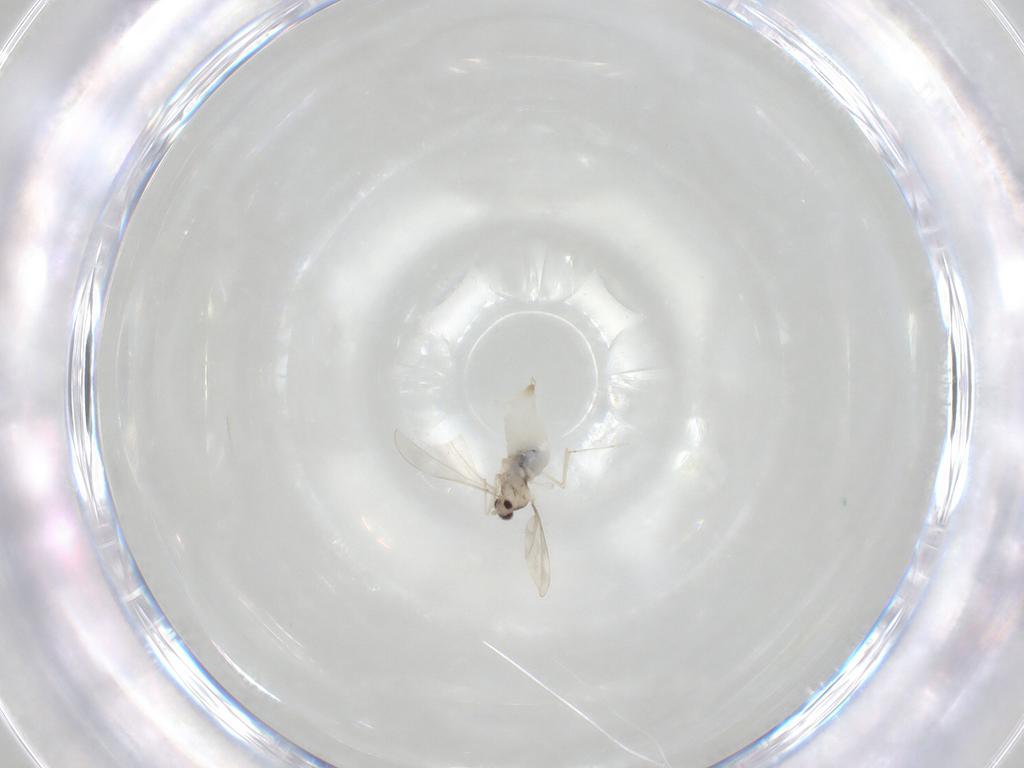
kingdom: Animalia
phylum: Arthropoda
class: Insecta
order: Diptera
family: Cecidomyiidae
